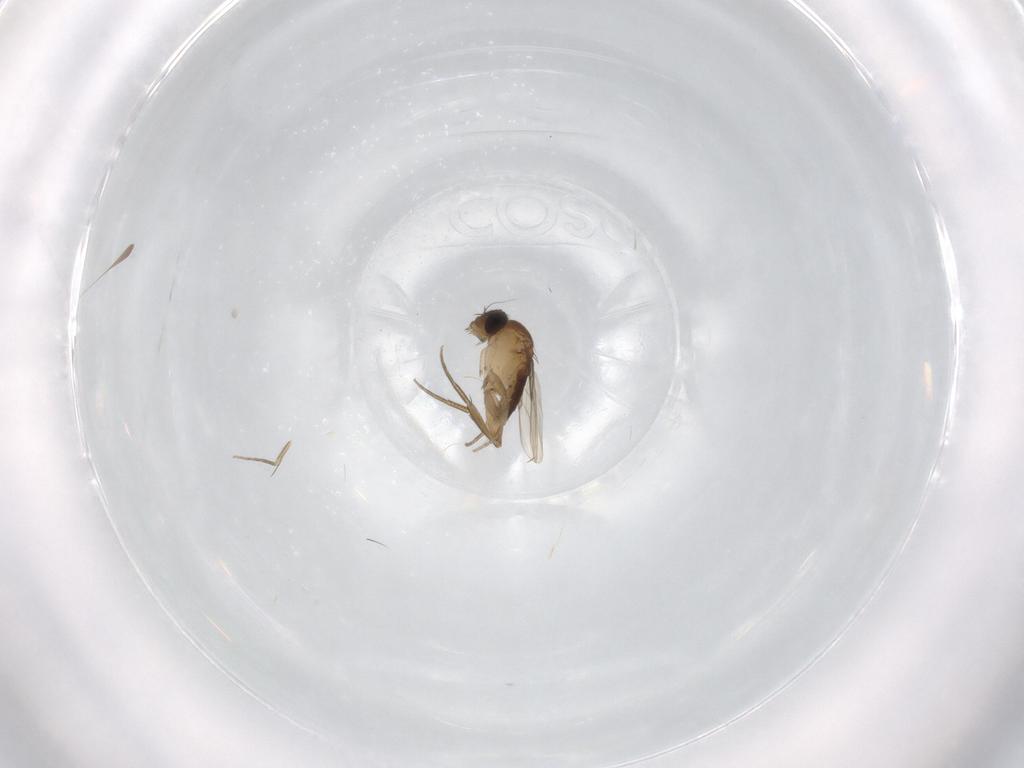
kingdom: Animalia
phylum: Arthropoda
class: Insecta
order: Diptera
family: Phoridae
